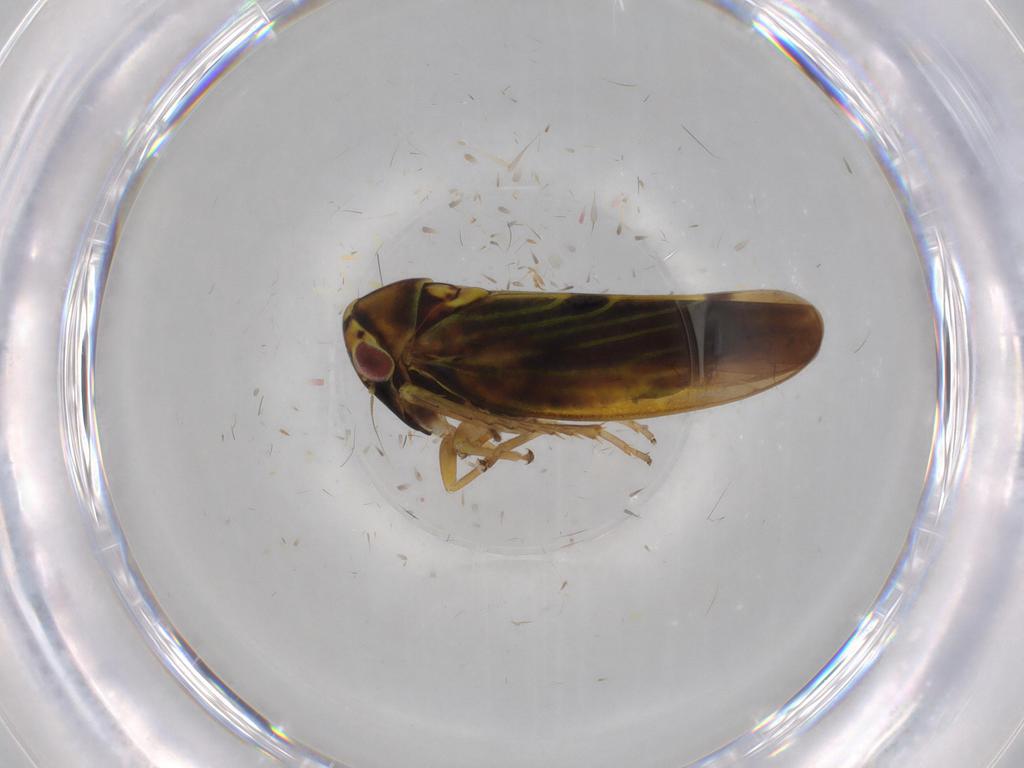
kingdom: Animalia
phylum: Arthropoda
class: Insecta
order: Hemiptera
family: Cicadellidae
